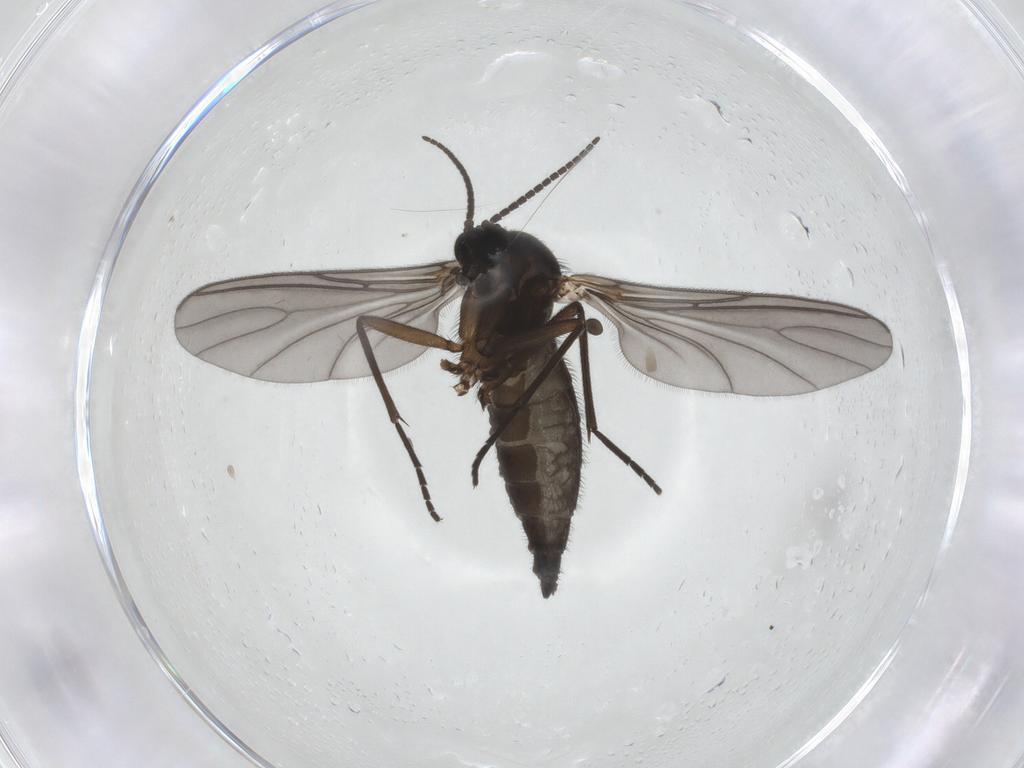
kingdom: Animalia
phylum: Arthropoda
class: Insecta
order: Diptera
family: Sciaridae
